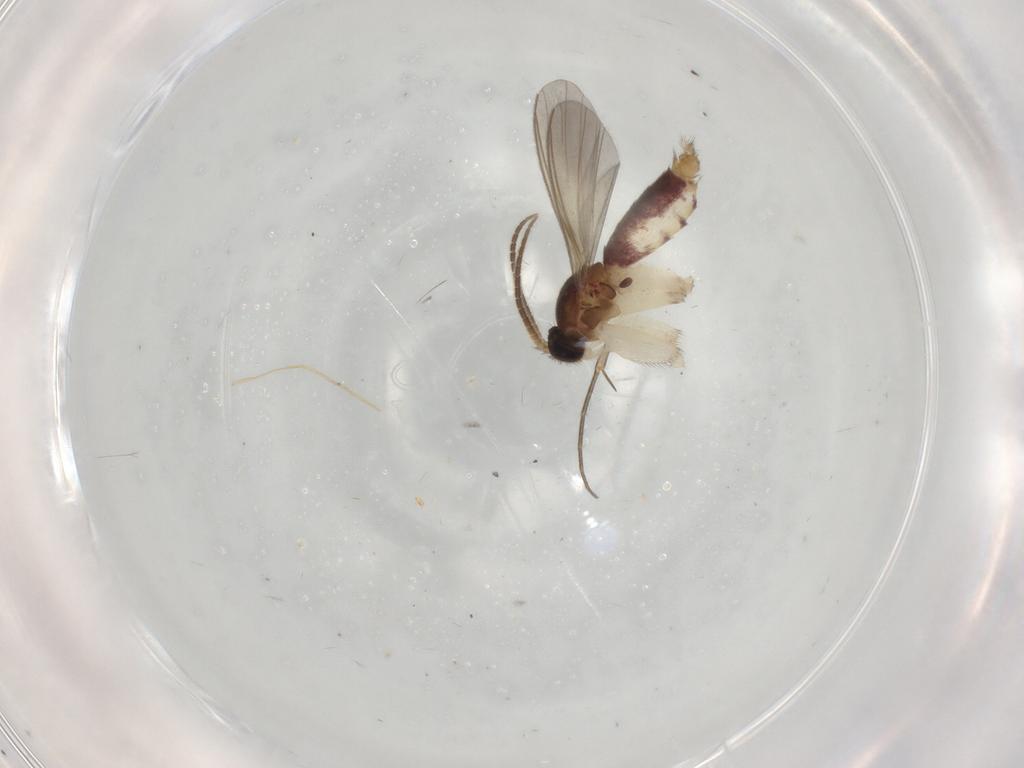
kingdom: Animalia
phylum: Arthropoda
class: Insecta
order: Diptera
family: Mycetophilidae
